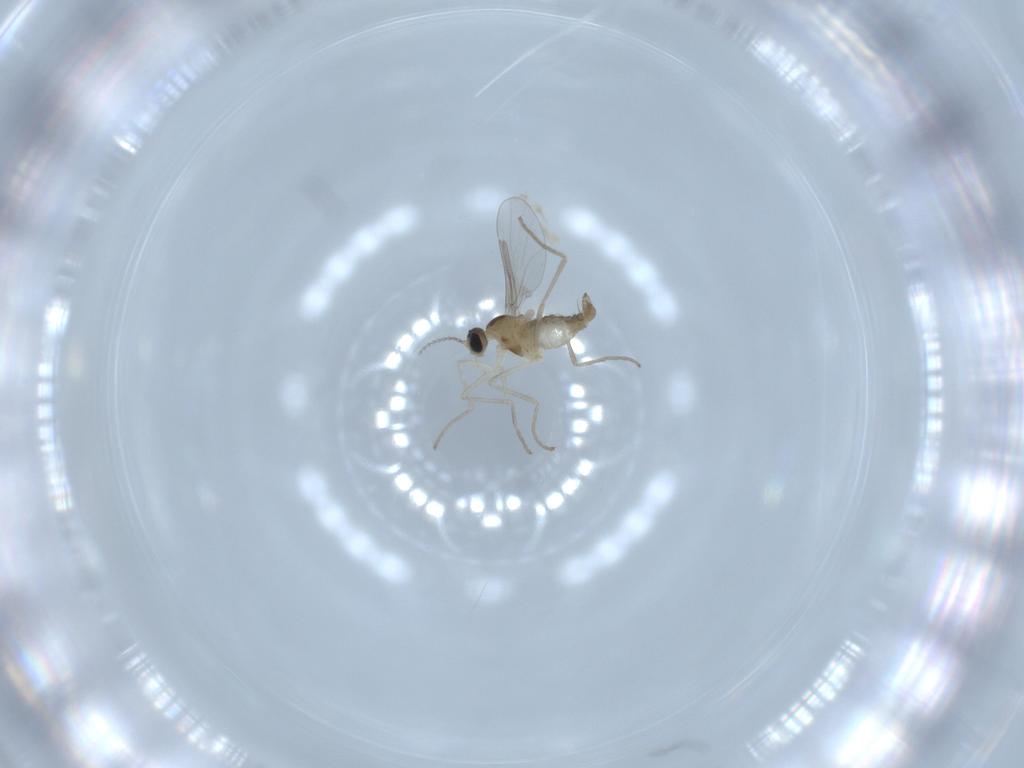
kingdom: Animalia
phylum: Arthropoda
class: Insecta
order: Diptera
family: Cecidomyiidae
